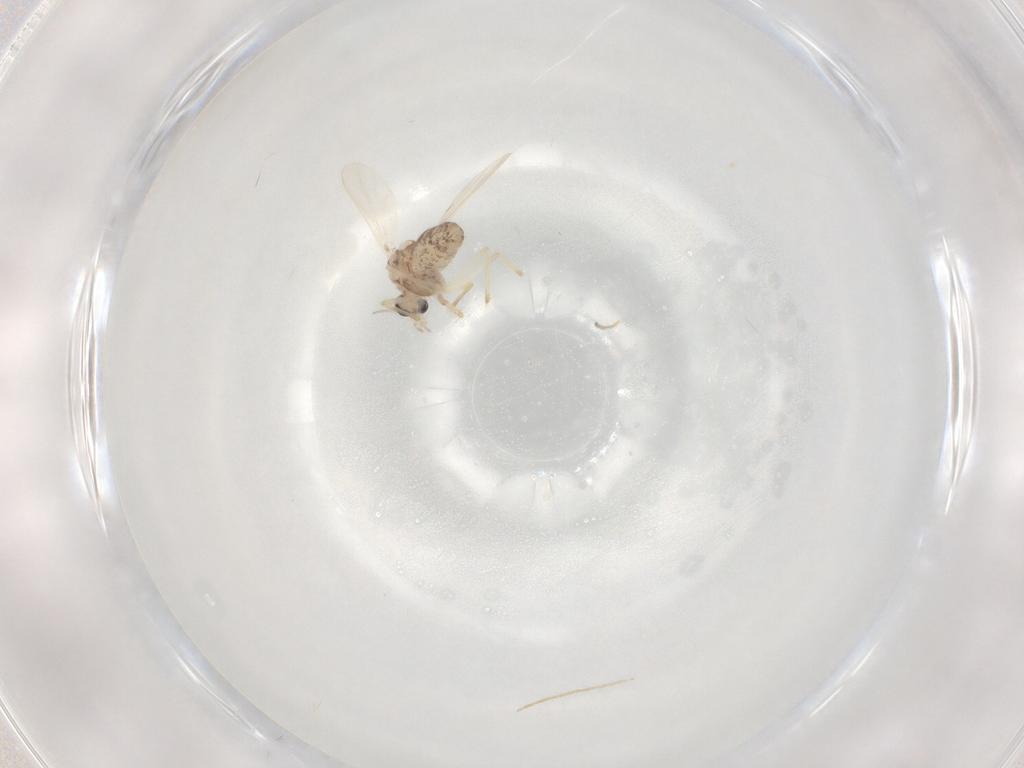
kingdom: Animalia
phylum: Arthropoda
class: Insecta
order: Diptera
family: Chironomidae
